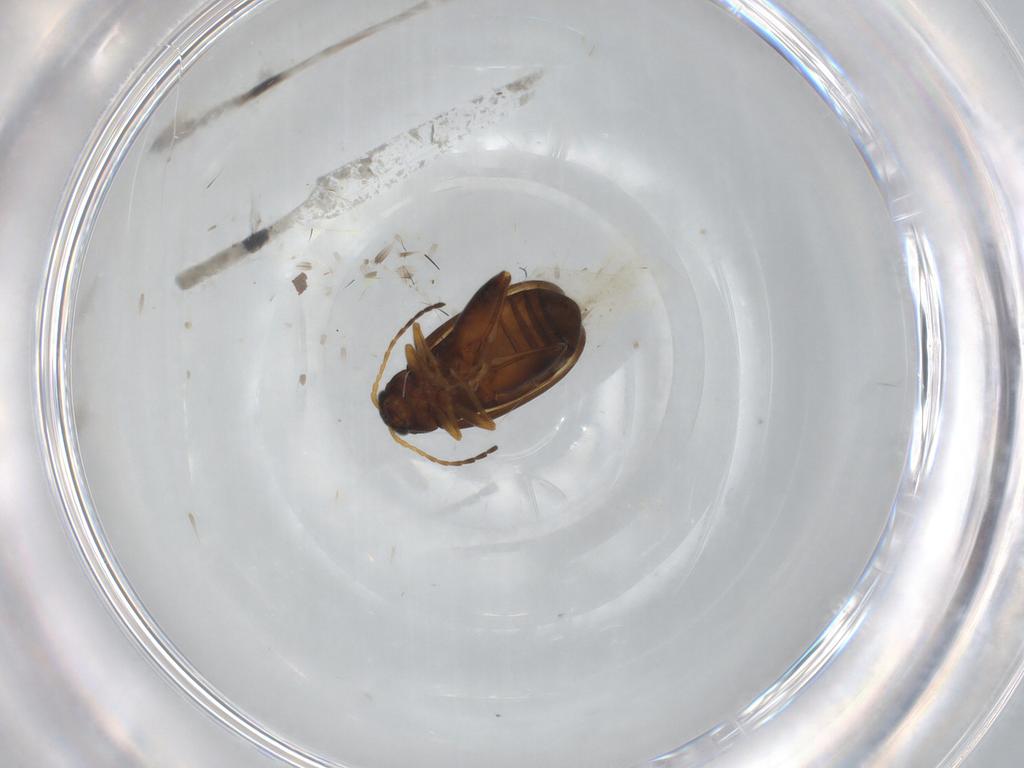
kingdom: Animalia
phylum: Arthropoda
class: Insecta
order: Coleoptera
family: Chrysomelidae
